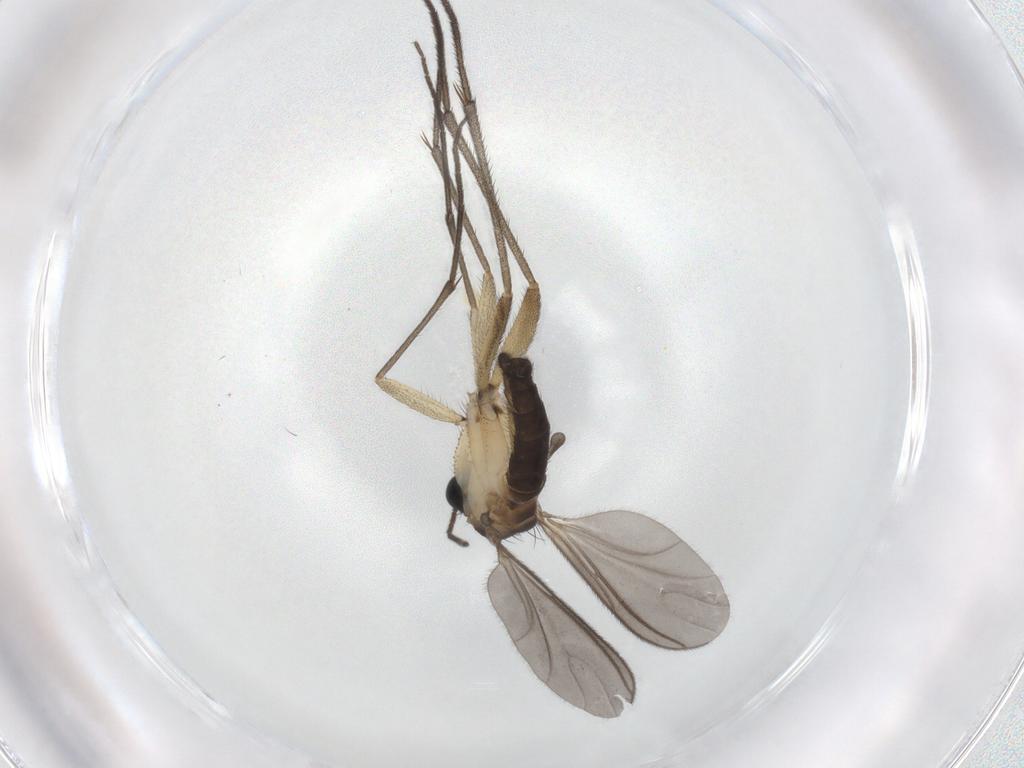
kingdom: Animalia
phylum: Arthropoda
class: Insecta
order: Diptera
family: Sciaridae
